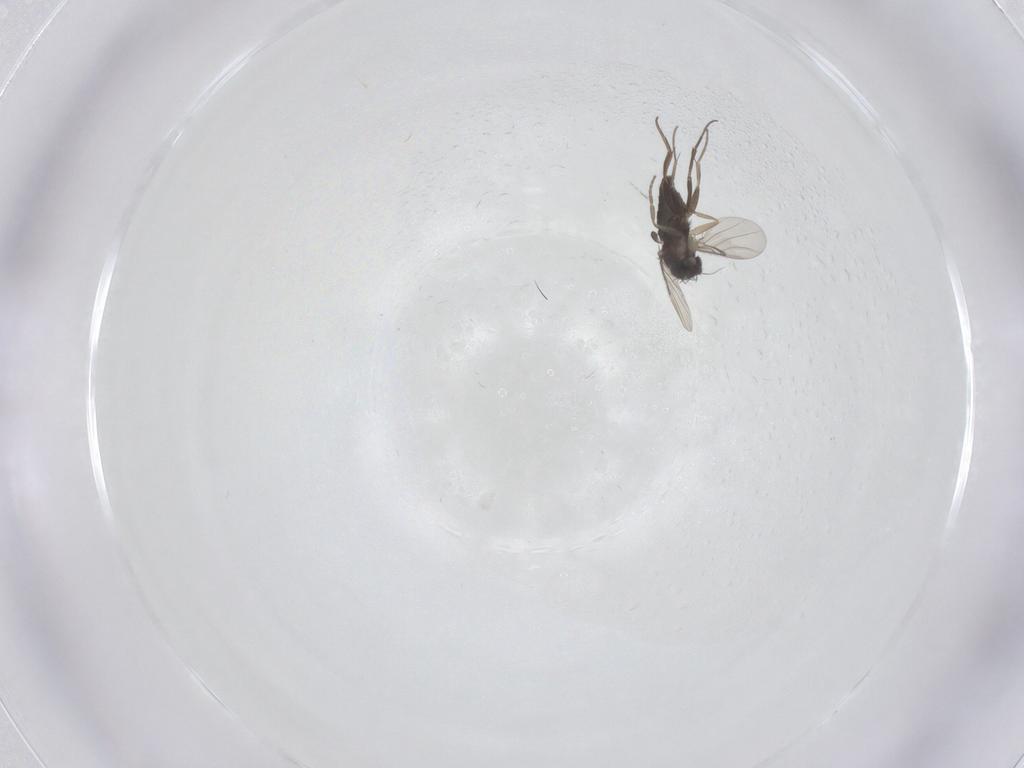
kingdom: Animalia
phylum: Arthropoda
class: Insecta
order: Diptera
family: Phoridae
